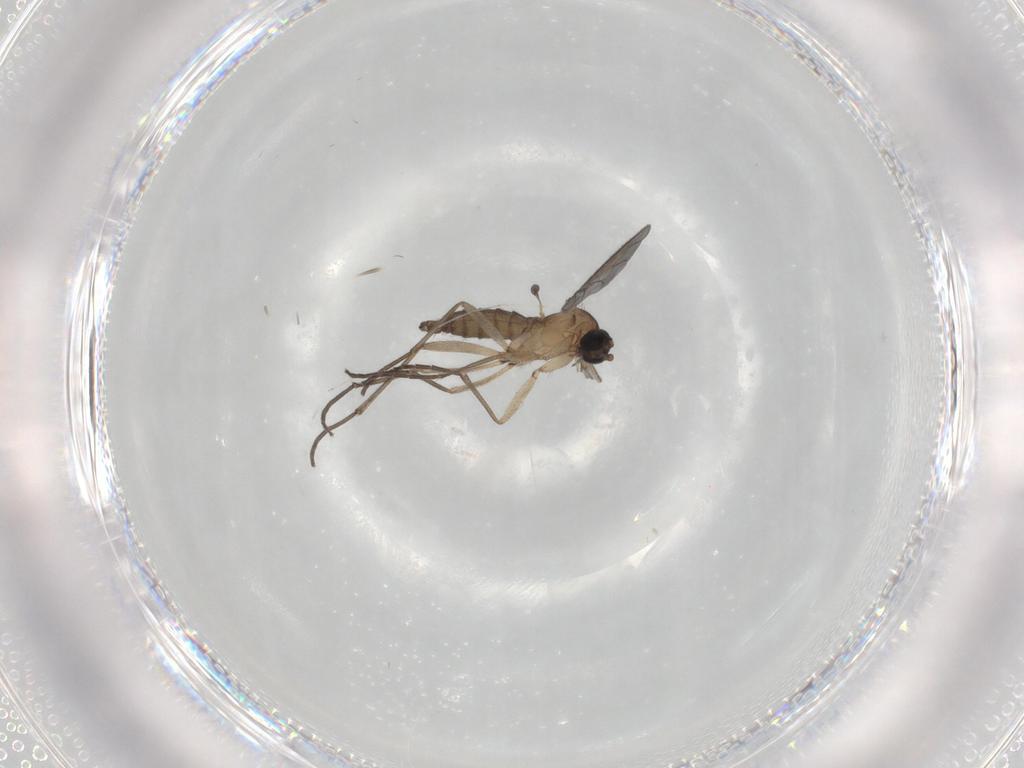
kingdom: Animalia
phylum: Arthropoda
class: Insecta
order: Diptera
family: Sciaridae
